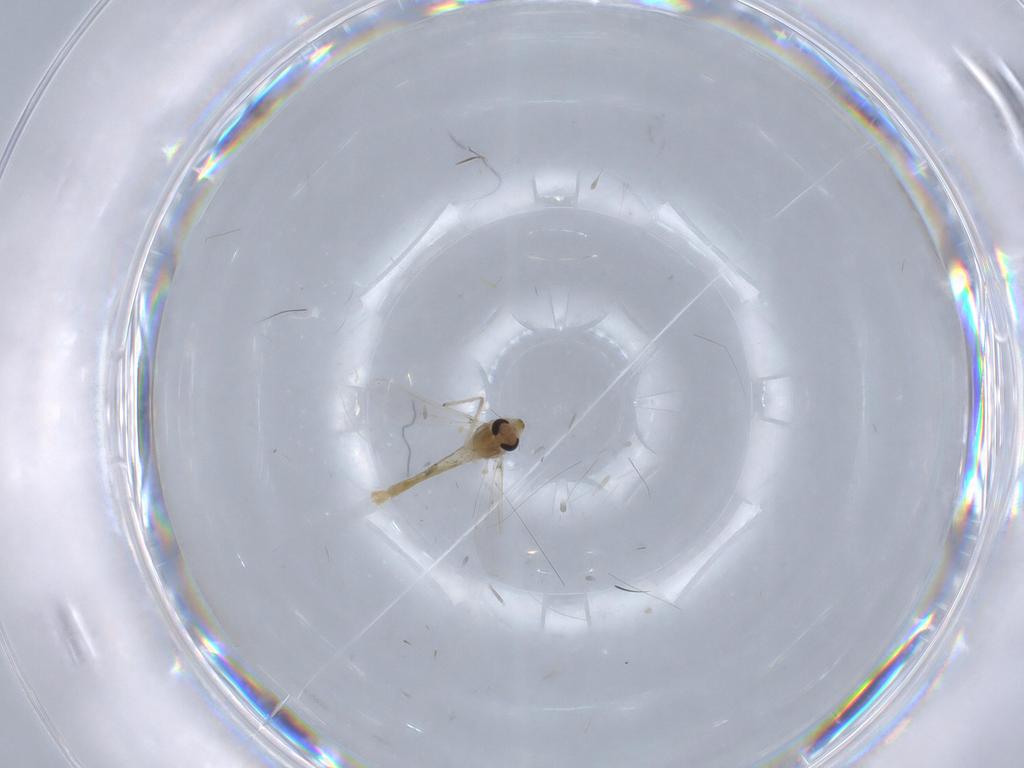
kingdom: Animalia
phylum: Arthropoda
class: Insecta
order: Diptera
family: Chironomidae
